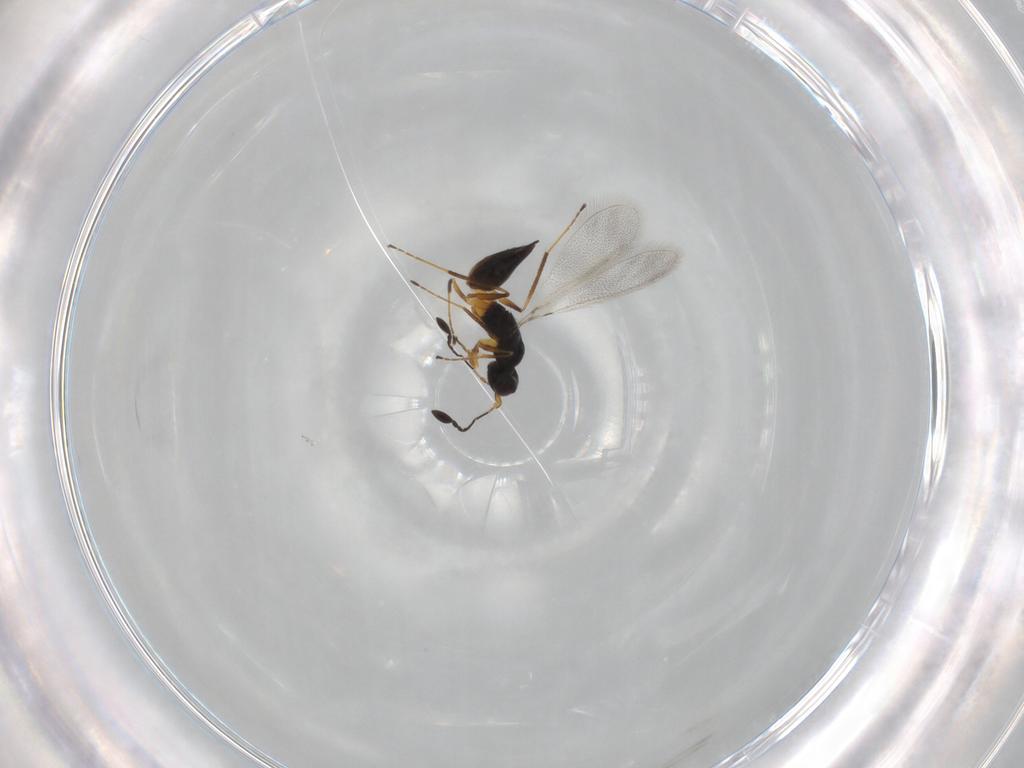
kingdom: Animalia
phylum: Arthropoda
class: Insecta
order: Hymenoptera
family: Mymaridae
